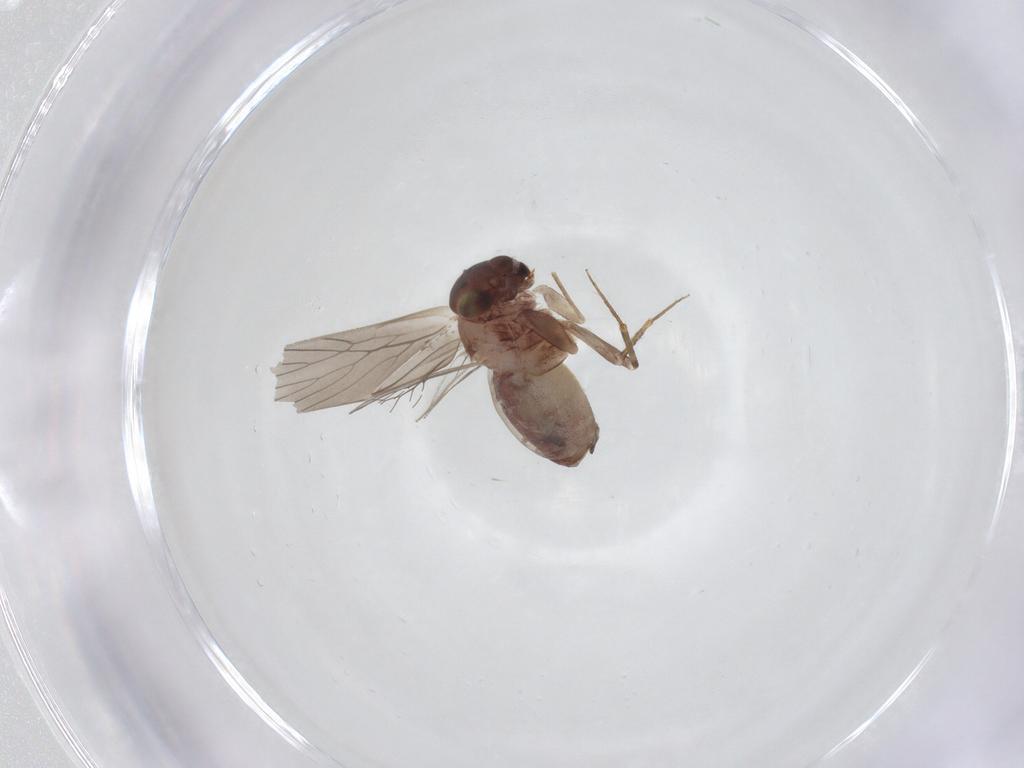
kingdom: Animalia
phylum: Arthropoda
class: Insecta
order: Psocodea
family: Lepidopsocidae
